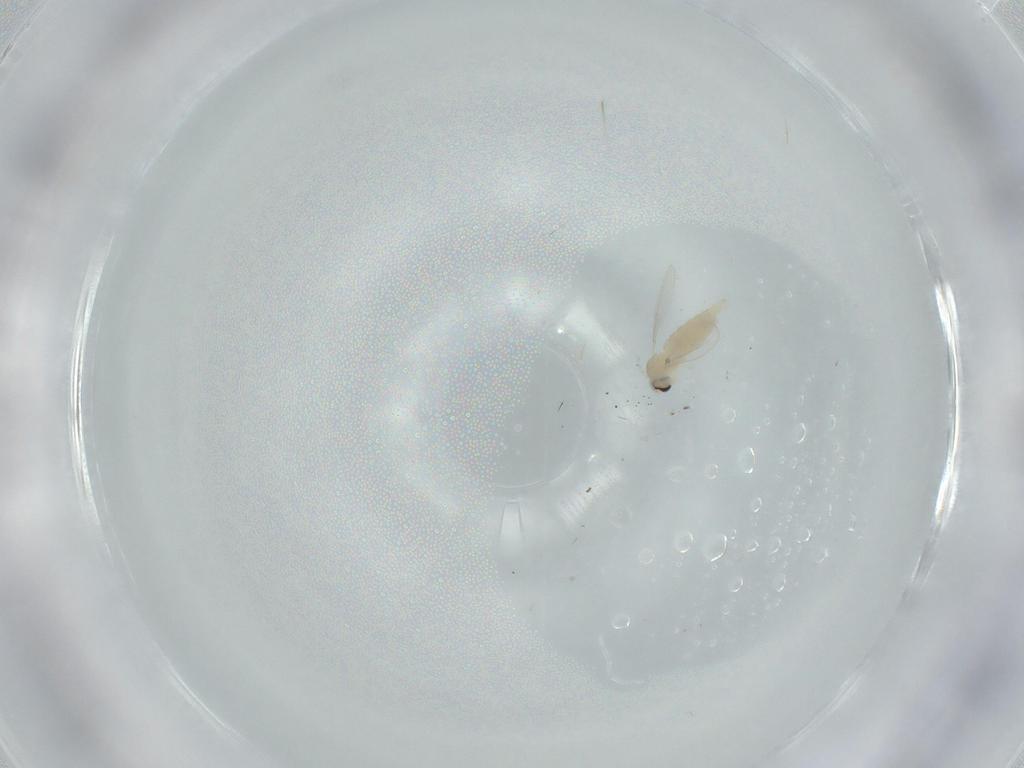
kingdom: Animalia
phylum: Arthropoda
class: Insecta
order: Diptera
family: Cecidomyiidae
